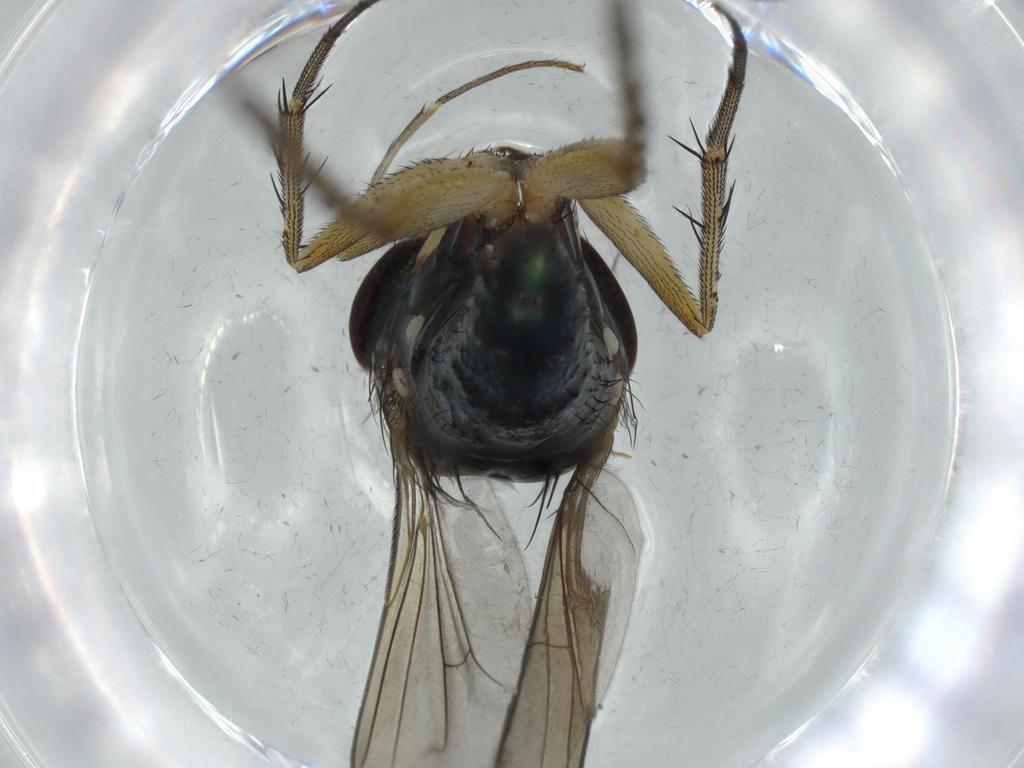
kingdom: Animalia
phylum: Arthropoda
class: Insecta
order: Diptera
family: Dolichopodidae
